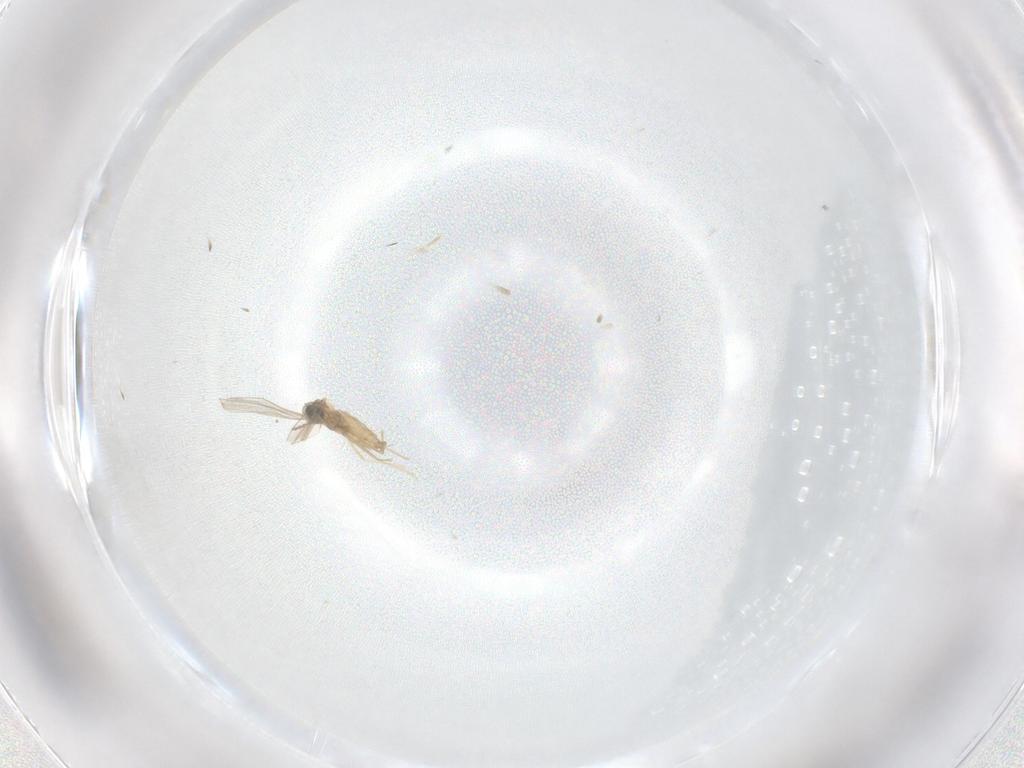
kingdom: Animalia
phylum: Arthropoda
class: Insecta
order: Diptera
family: Cecidomyiidae
